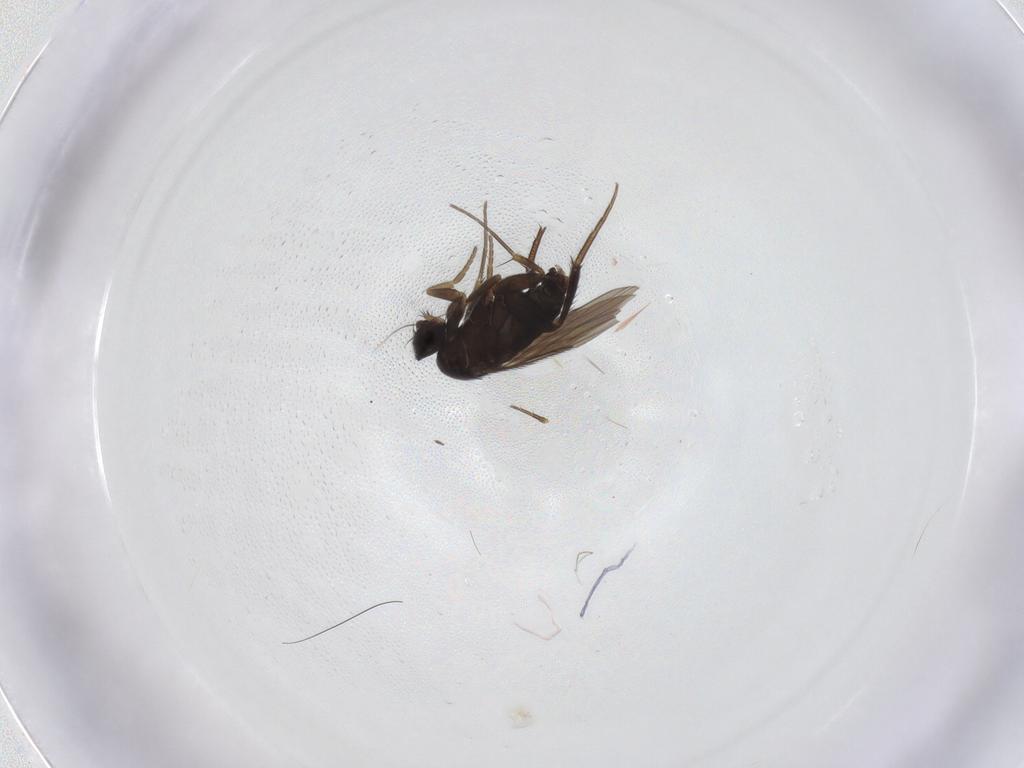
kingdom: Animalia
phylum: Arthropoda
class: Insecta
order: Diptera
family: Phoridae
